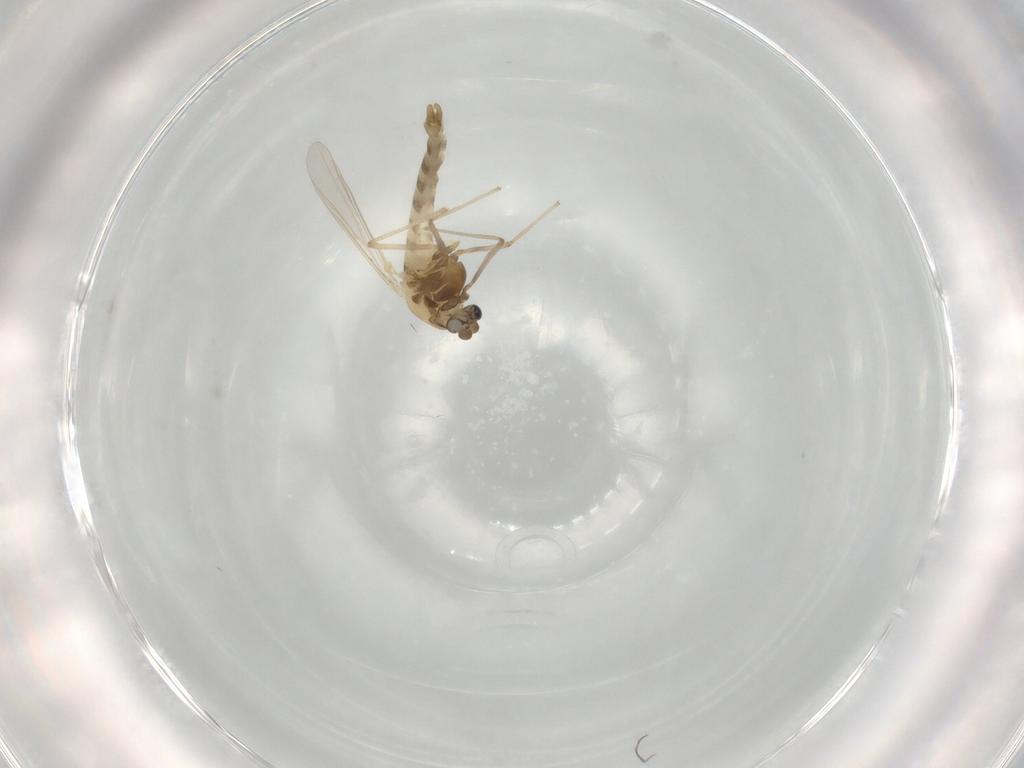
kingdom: Animalia
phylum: Arthropoda
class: Insecta
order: Diptera
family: Chironomidae
